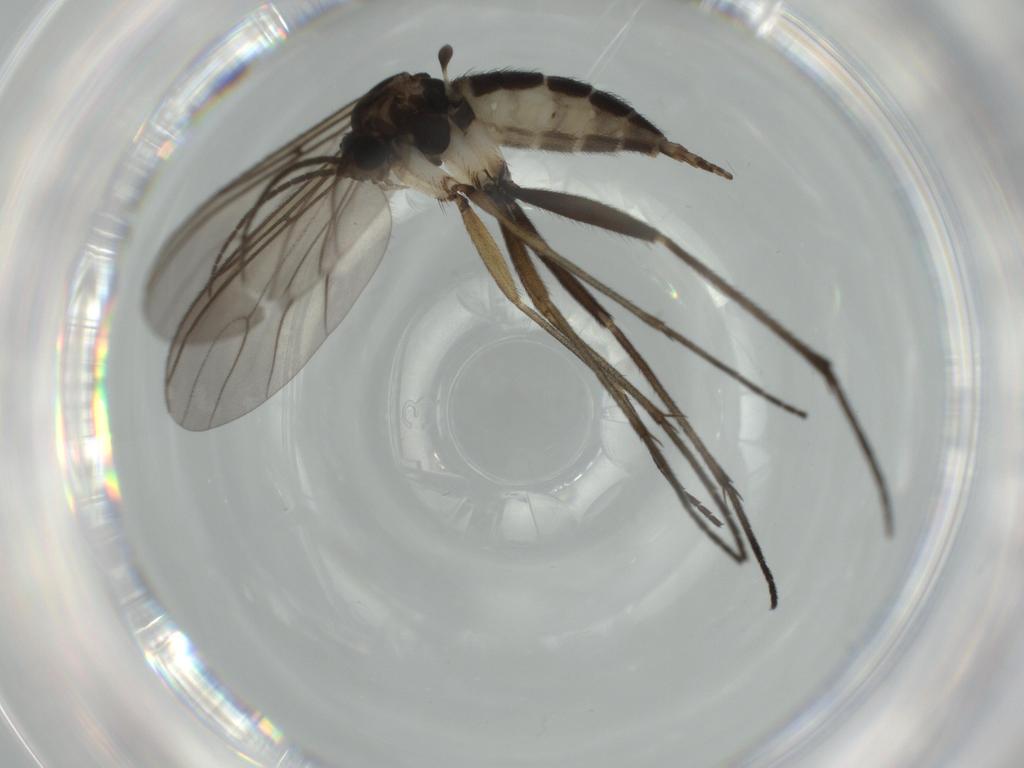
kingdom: Animalia
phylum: Arthropoda
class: Insecta
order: Diptera
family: Sciaridae
